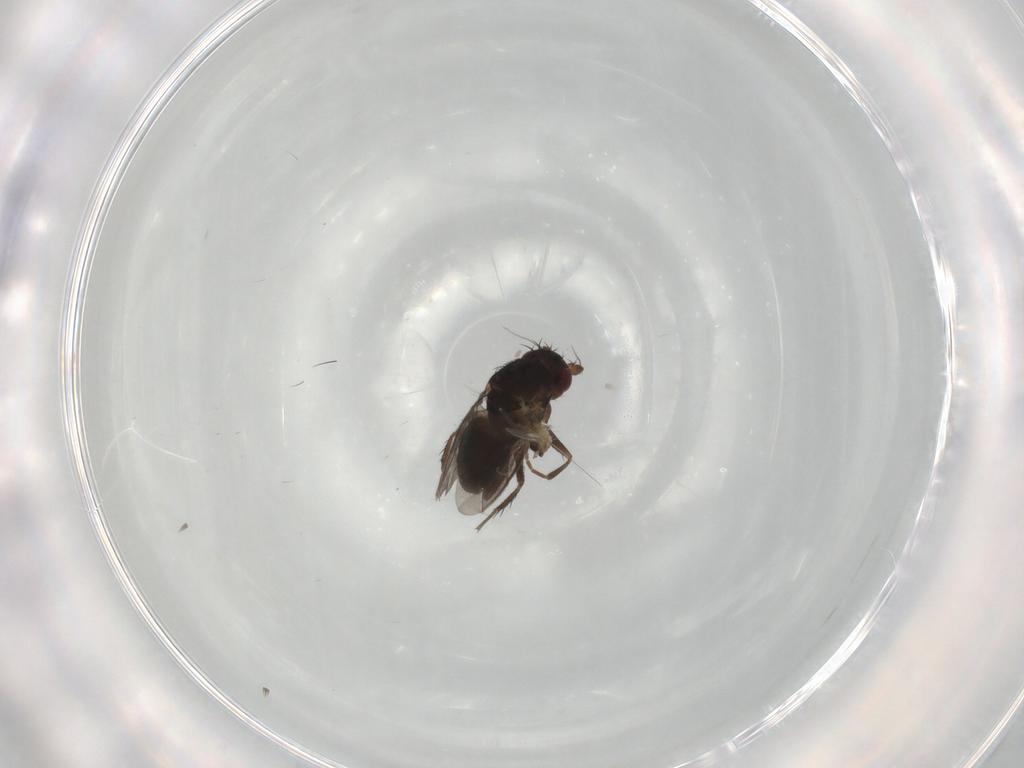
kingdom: Animalia
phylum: Arthropoda
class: Insecta
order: Diptera
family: Sphaeroceridae
